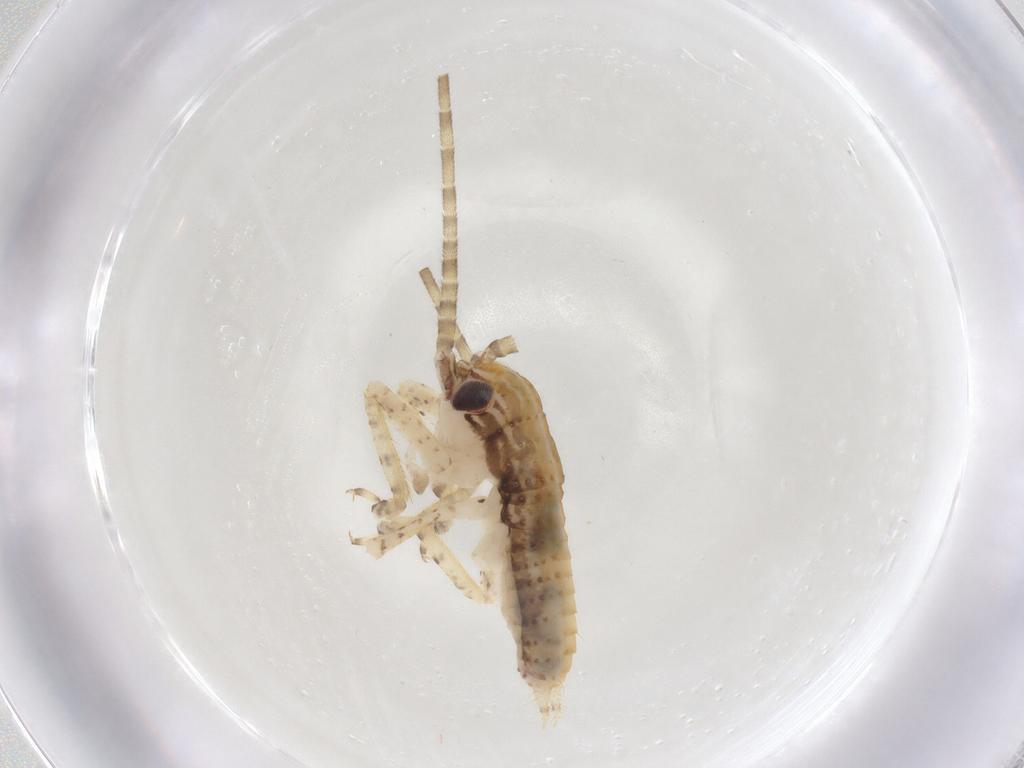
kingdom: Animalia
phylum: Arthropoda
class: Insecta
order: Orthoptera
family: Gryllidae
